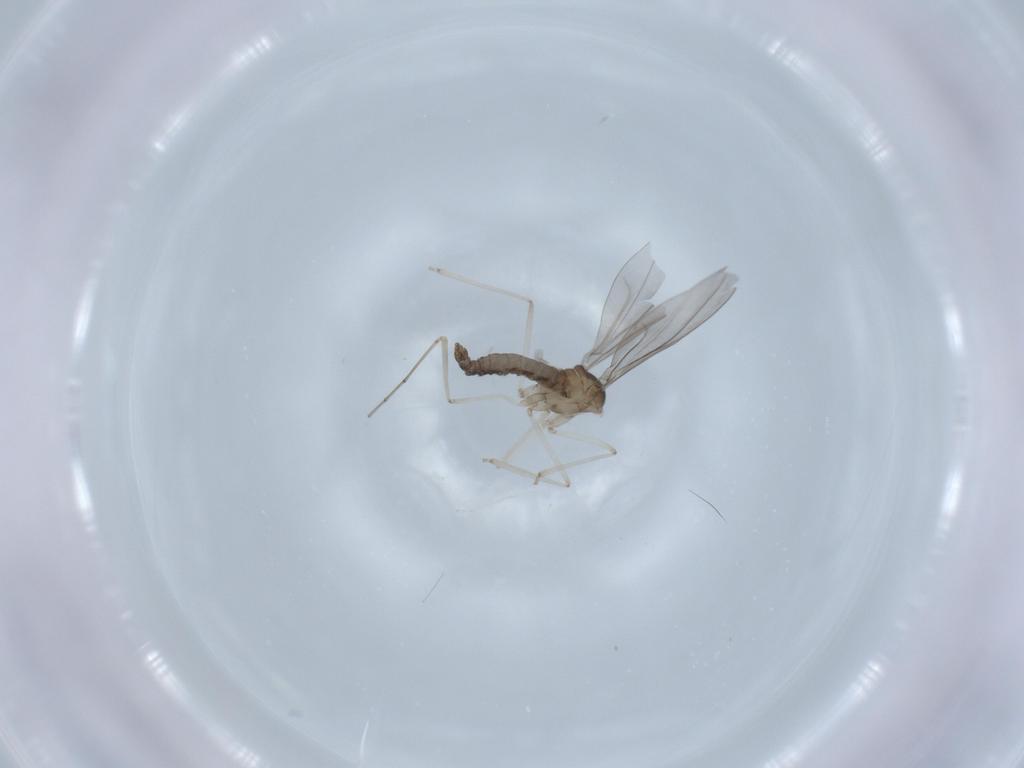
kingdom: Animalia
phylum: Arthropoda
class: Insecta
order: Diptera
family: Cecidomyiidae
